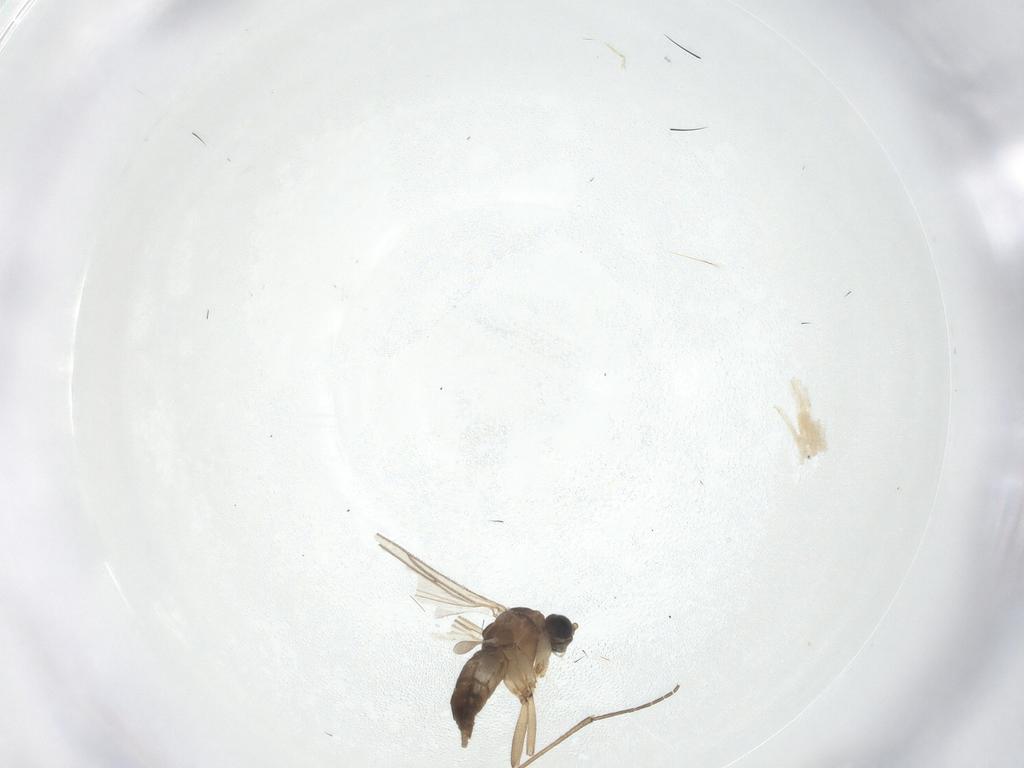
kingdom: Animalia
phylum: Arthropoda
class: Insecta
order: Diptera
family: Sciaridae
